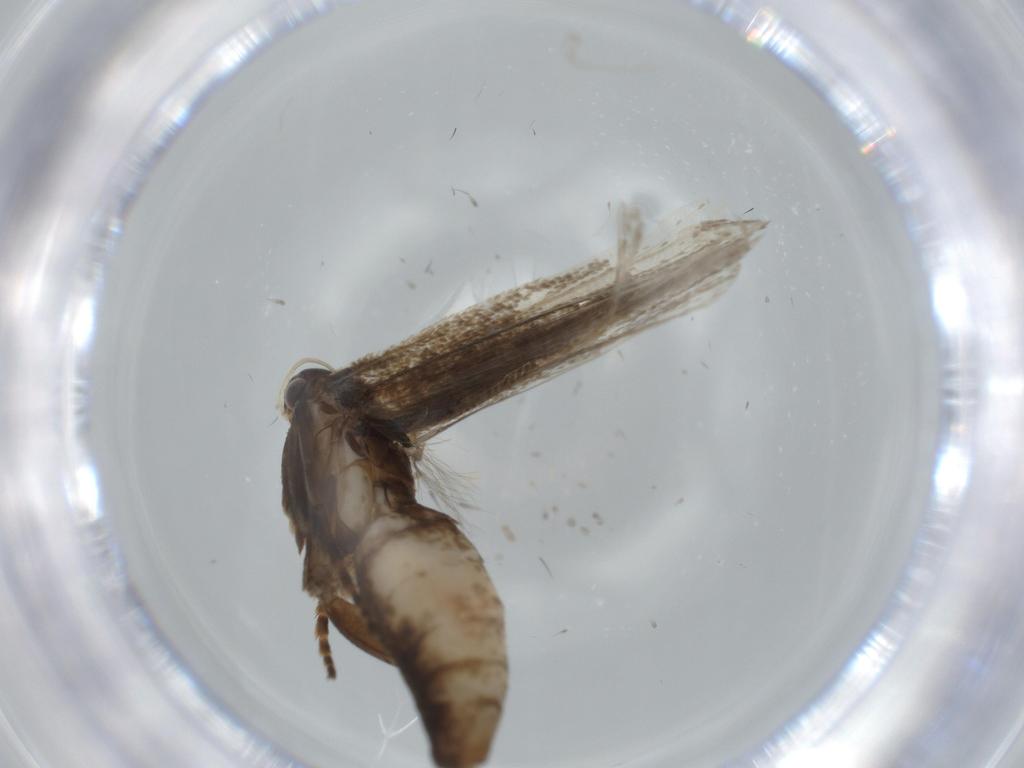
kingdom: Animalia
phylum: Arthropoda
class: Insecta
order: Lepidoptera
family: Gelechiidae
